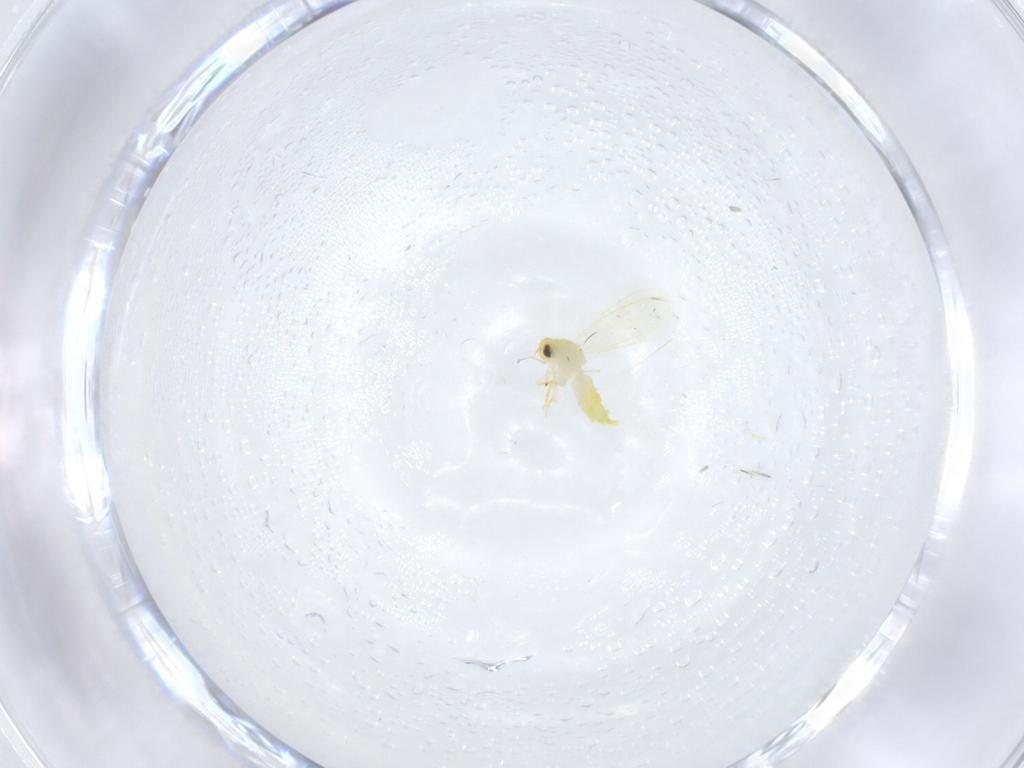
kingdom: Animalia
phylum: Arthropoda
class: Insecta
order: Hemiptera
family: Aleyrodidae
